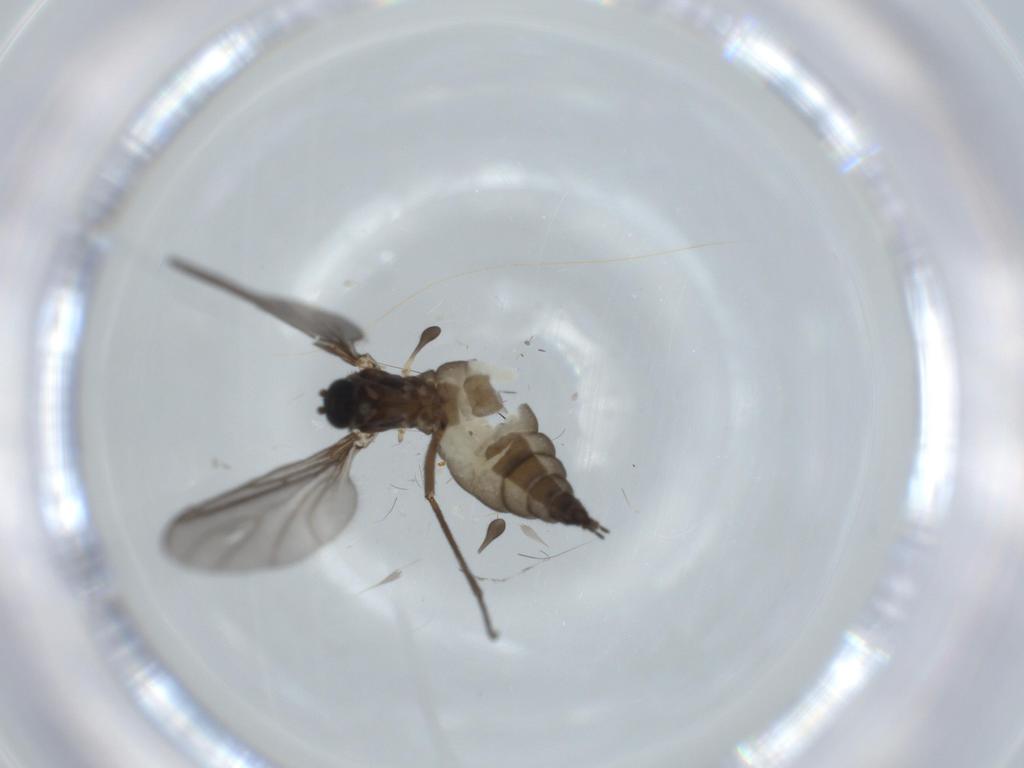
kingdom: Animalia
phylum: Arthropoda
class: Insecta
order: Diptera
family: Sciaridae
